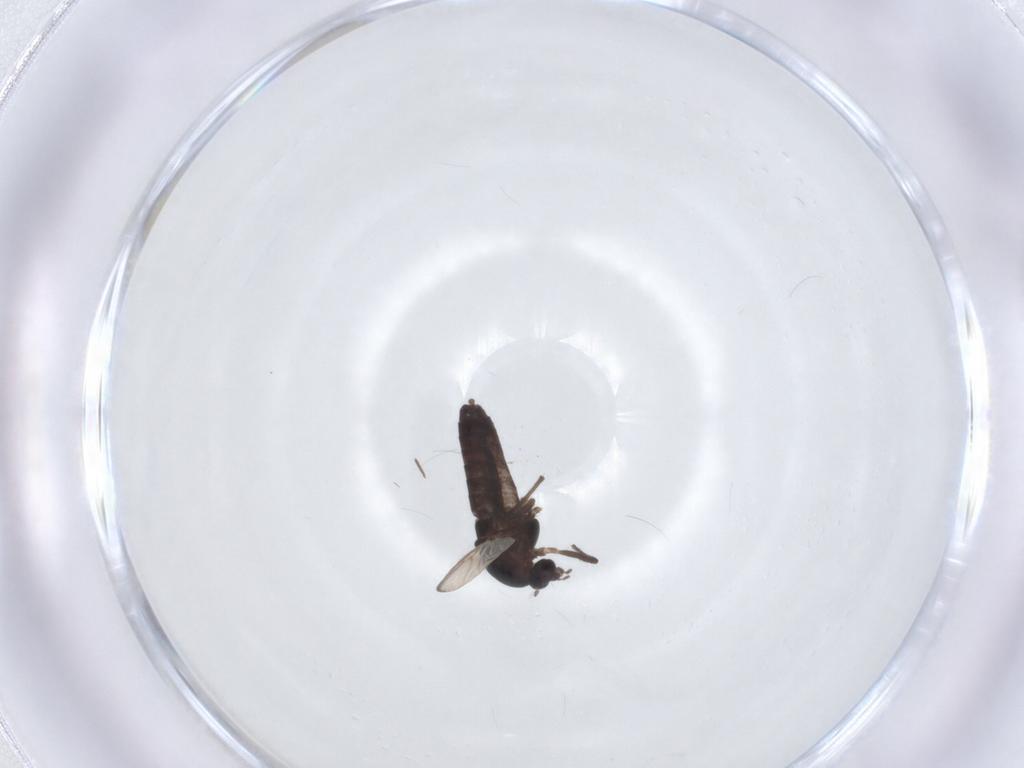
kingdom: Animalia
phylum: Arthropoda
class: Insecta
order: Diptera
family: Chironomidae
